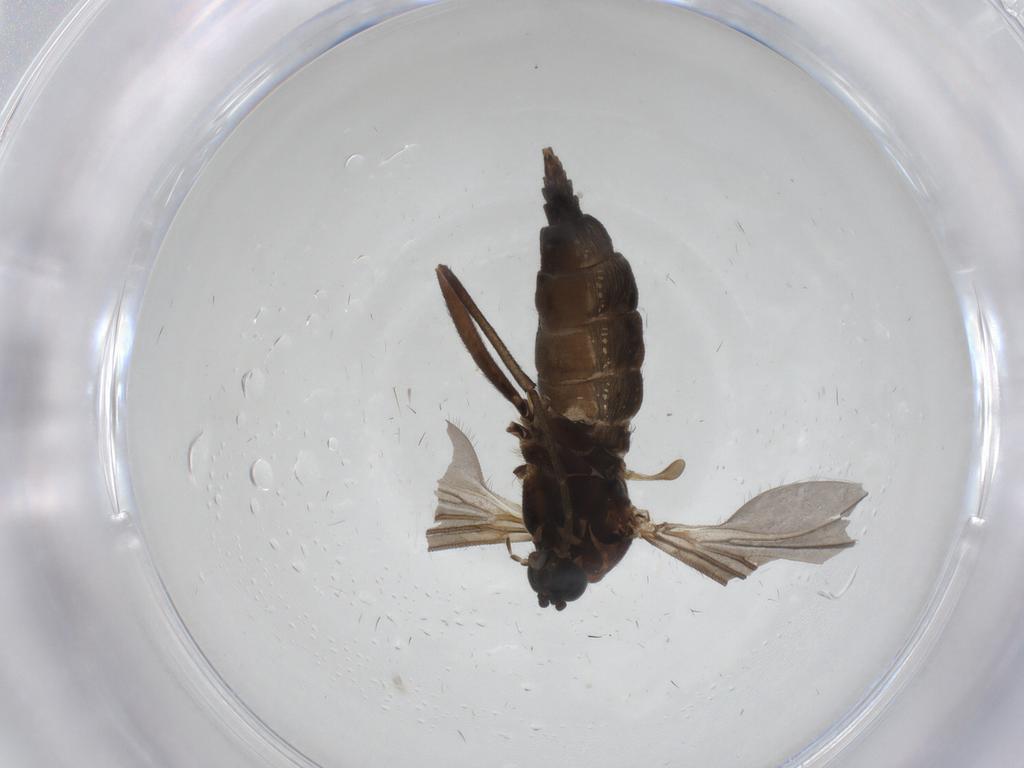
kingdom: Animalia
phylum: Arthropoda
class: Insecta
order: Diptera
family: Sciaridae
